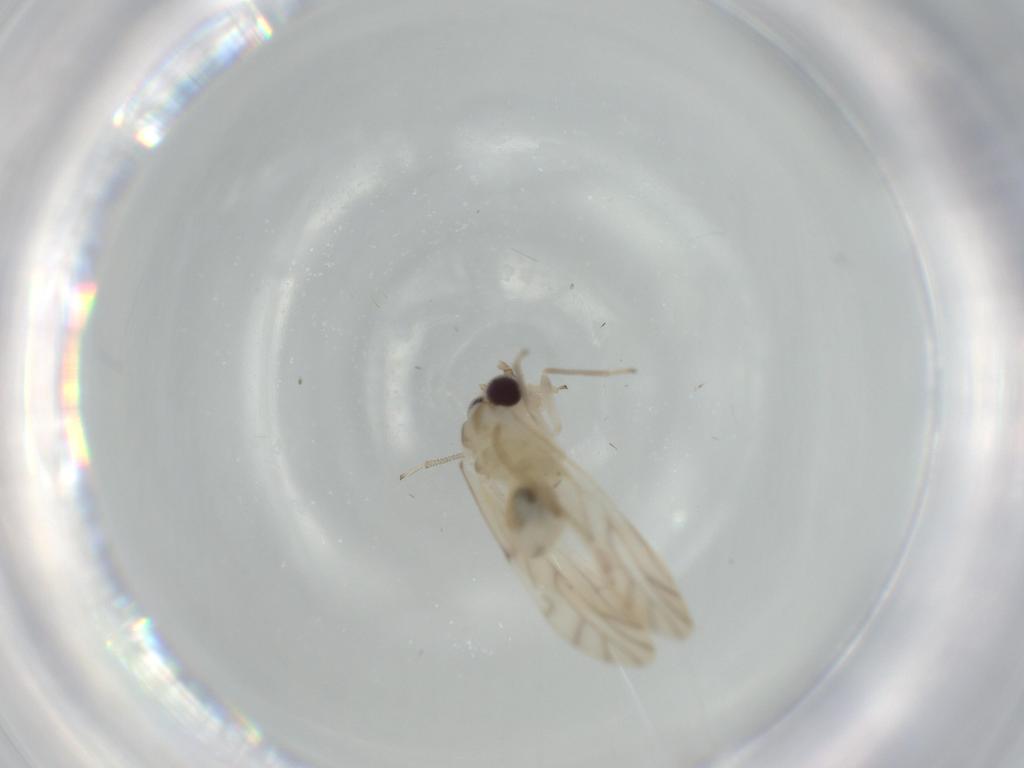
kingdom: Animalia
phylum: Arthropoda
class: Insecta
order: Psocodea
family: Caeciliusidae
